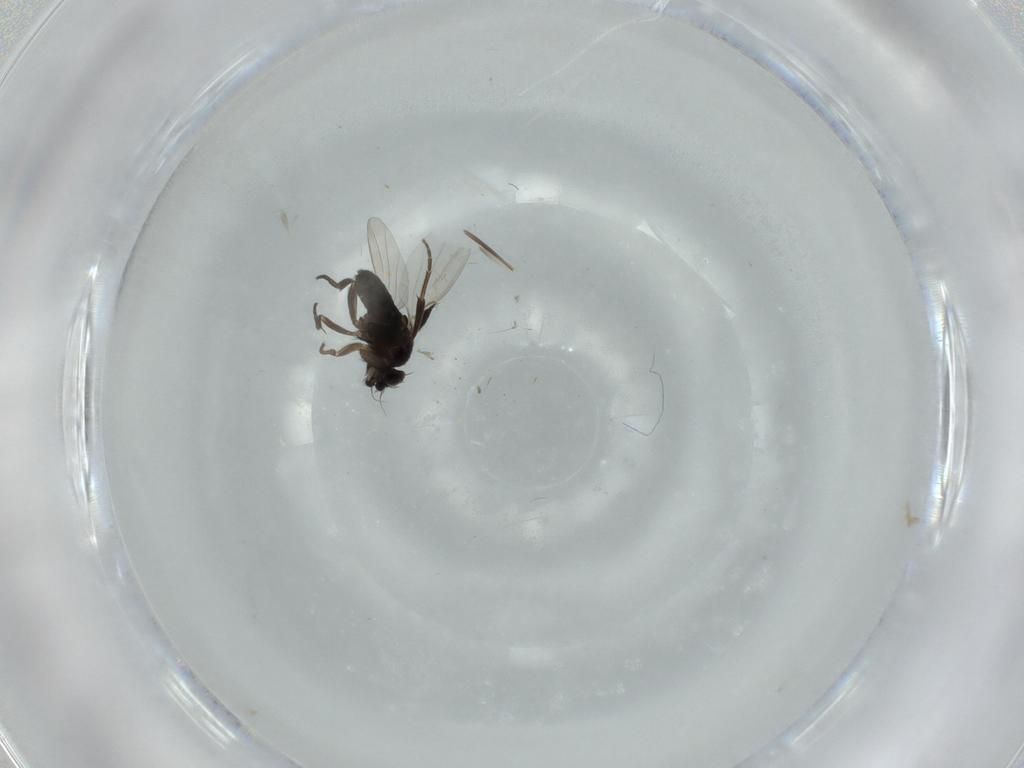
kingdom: Animalia
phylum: Arthropoda
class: Insecta
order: Diptera
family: Phoridae
